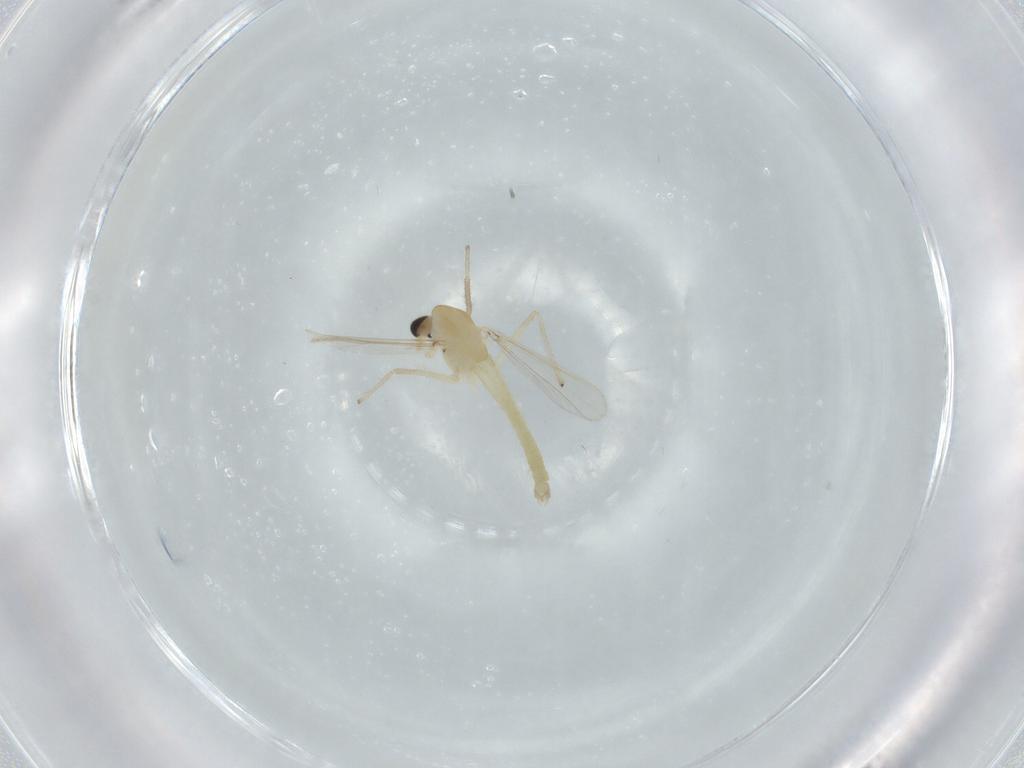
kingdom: Animalia
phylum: Arthropoda
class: Insecta
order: Diptera
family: Chironomidae
